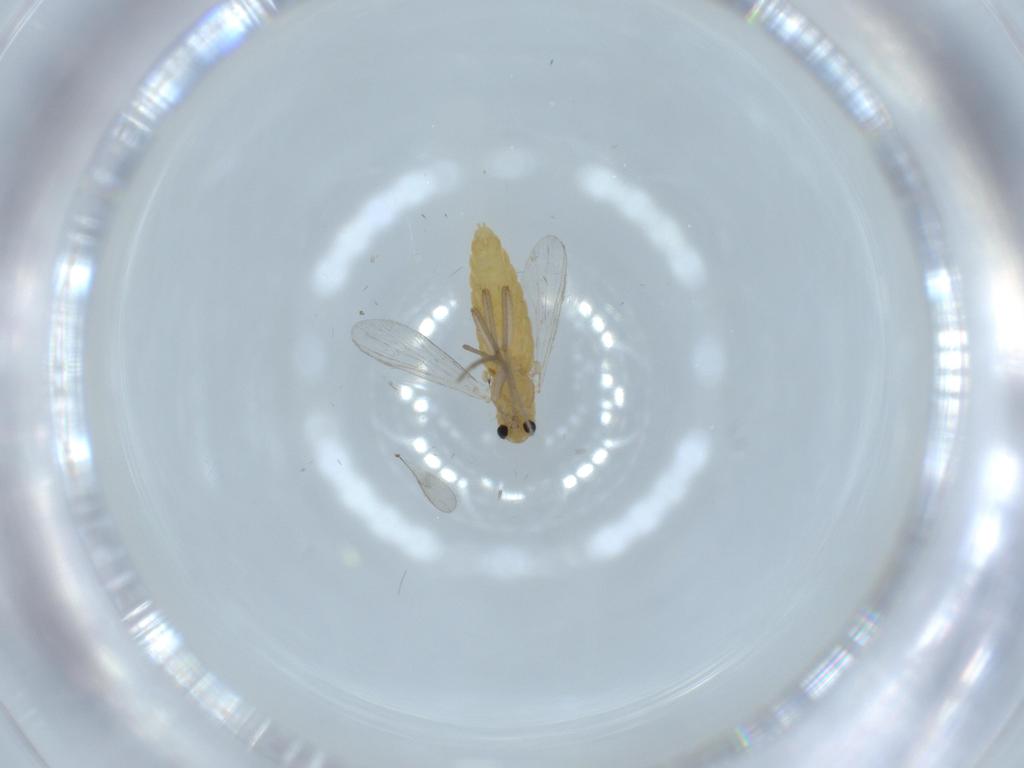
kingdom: Animalia
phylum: Arthropoda
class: Insecta
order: Diptera
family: Chironomidae
